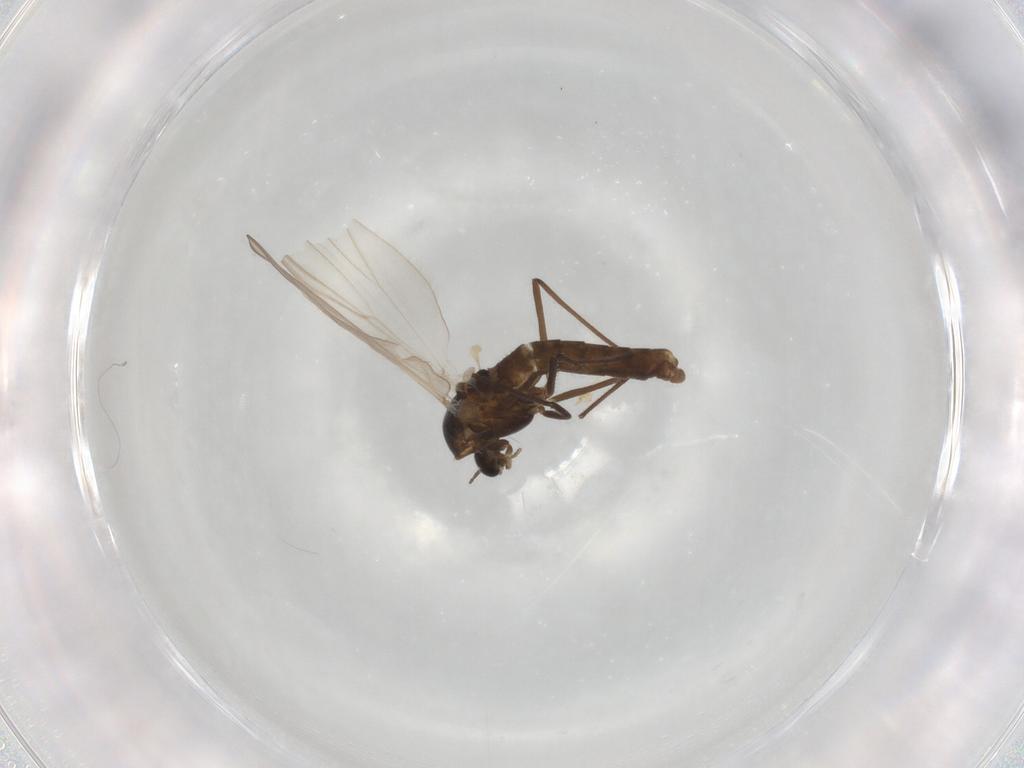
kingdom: Animalia
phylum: Arthropoda
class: Insecta
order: Diptera
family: Chironomidae
